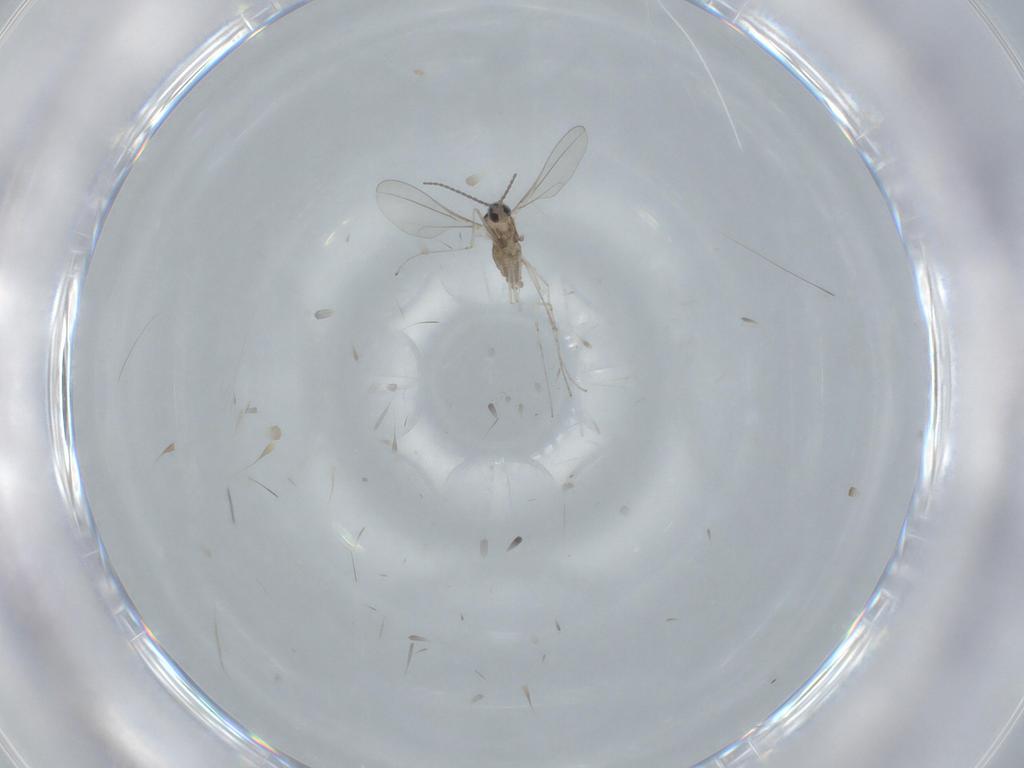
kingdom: Animalia
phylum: Arthropoda
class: Insecta
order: Diptera
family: Cecidomyiidae
